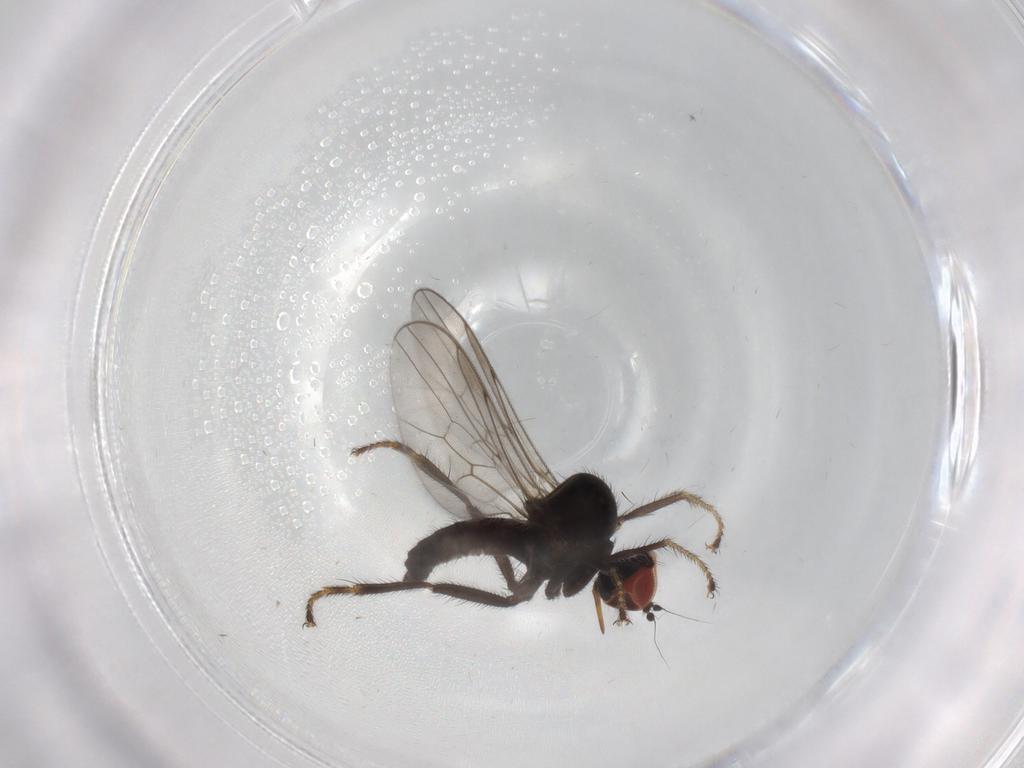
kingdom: Animalia
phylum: Arthropoda
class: Insecta
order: Diptera
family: Hybotidae
